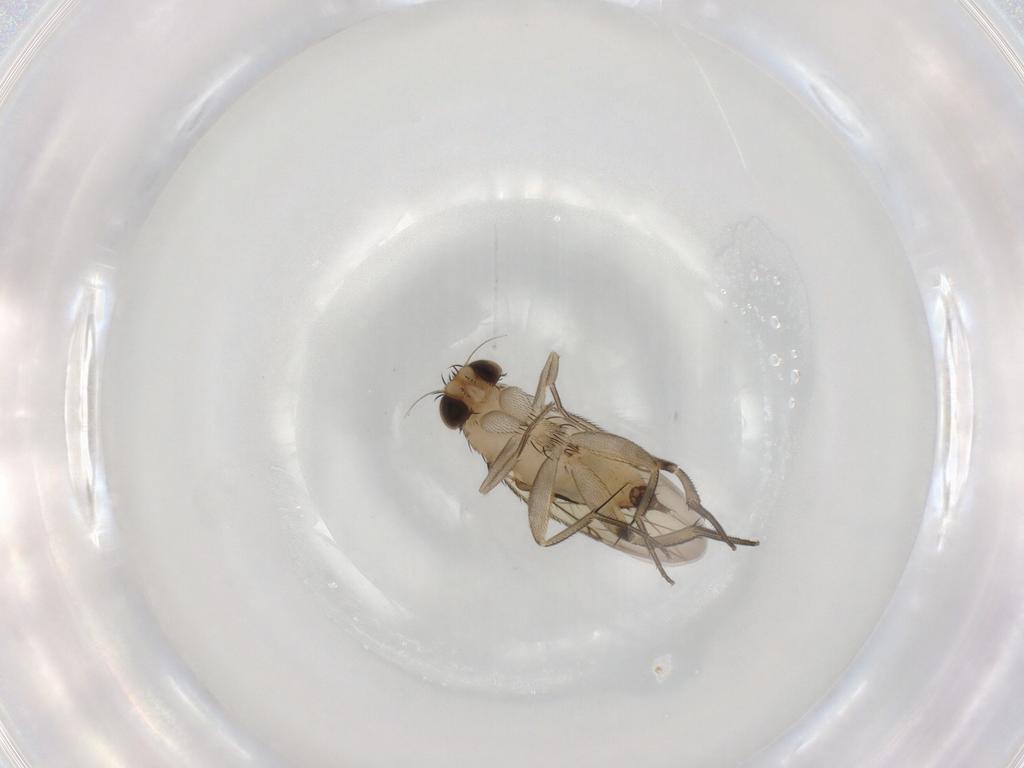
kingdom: Animalia
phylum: Arthropoda
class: Insecta
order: Diptera
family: Phoridae
